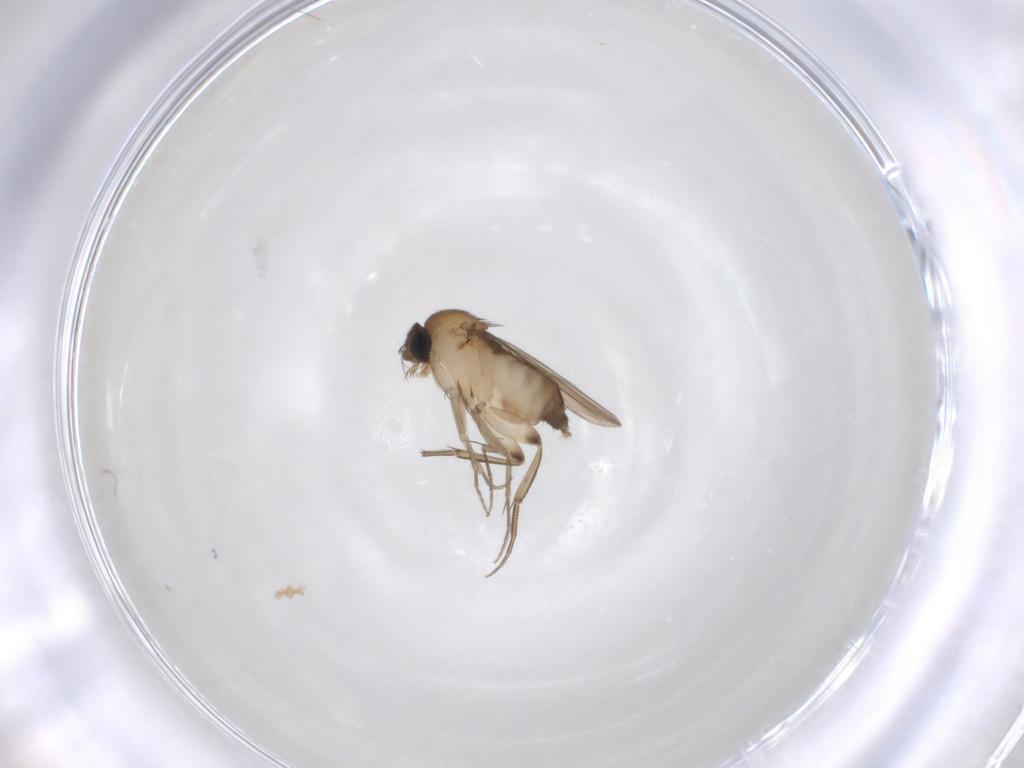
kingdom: Animalia
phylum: Arthropoda
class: Insecta
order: Diptera
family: Phoridae
